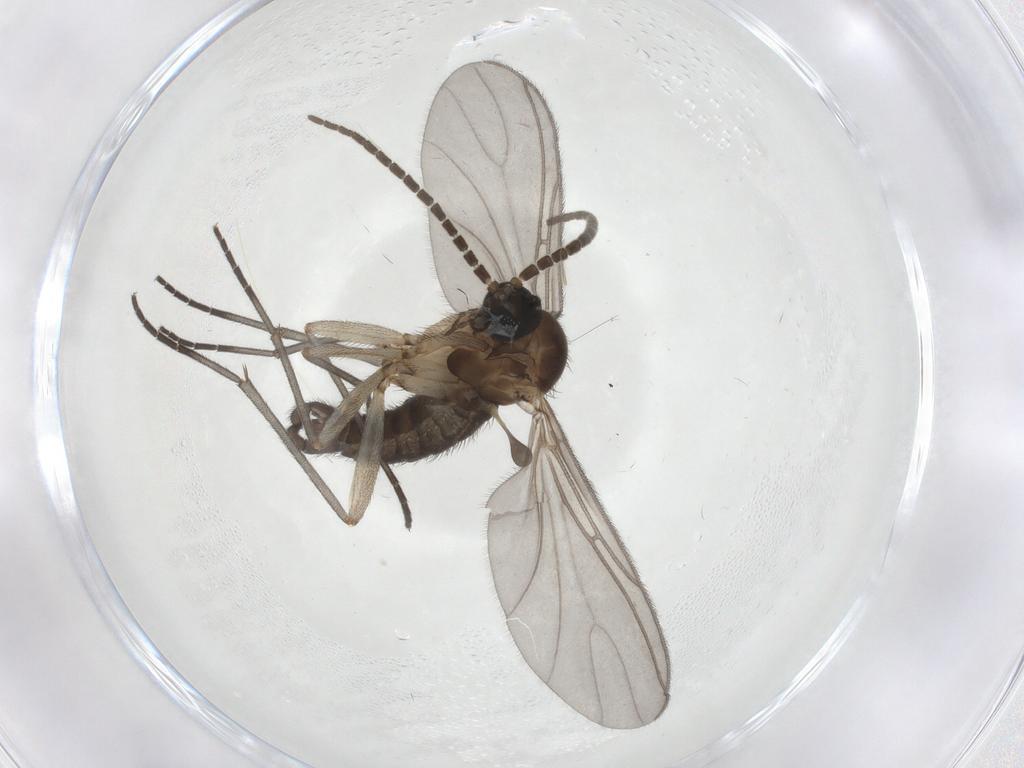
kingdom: Animalia
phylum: Arthropoda
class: Insecta
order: Diptera
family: Sciaridae
